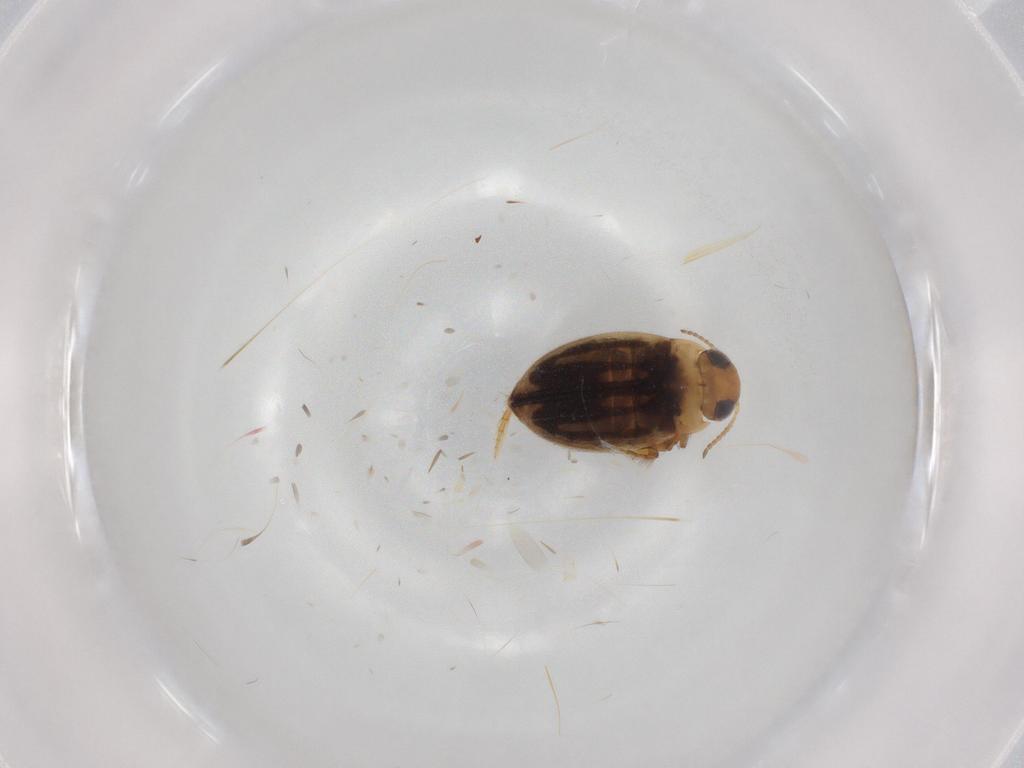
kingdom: Animalia
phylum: Arthropoda
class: Insecta
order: Coleoptera
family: Dytiscidae
